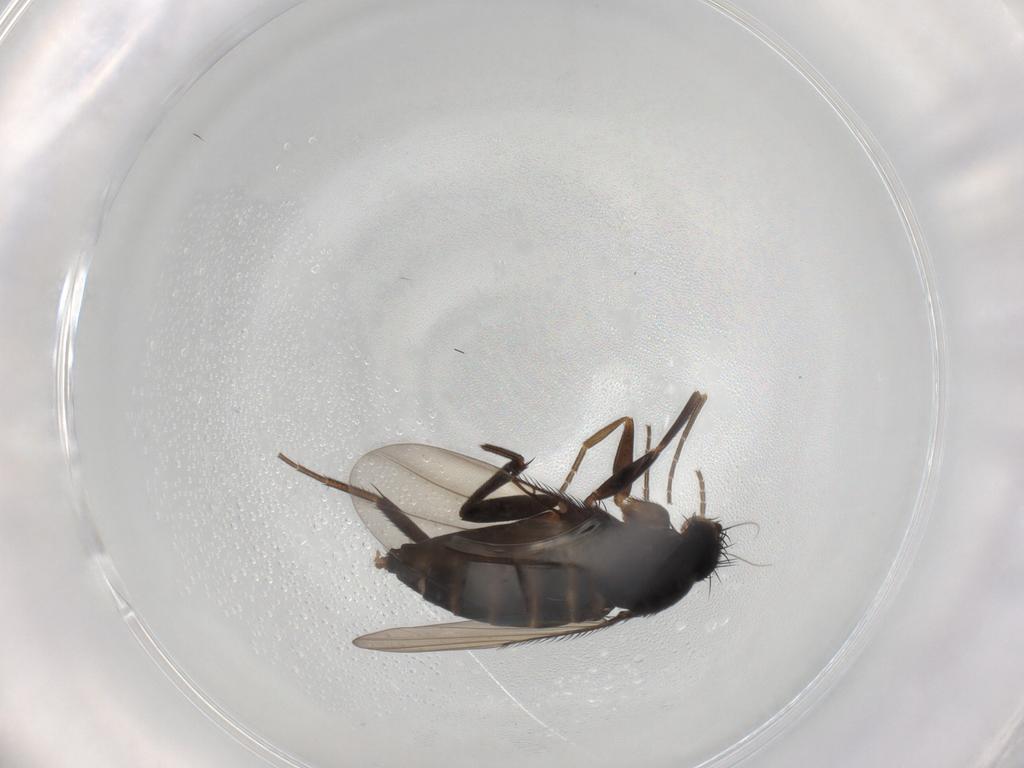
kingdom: Animalia
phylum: Arthropoda
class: Insecta
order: Diptera
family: Phoridae
